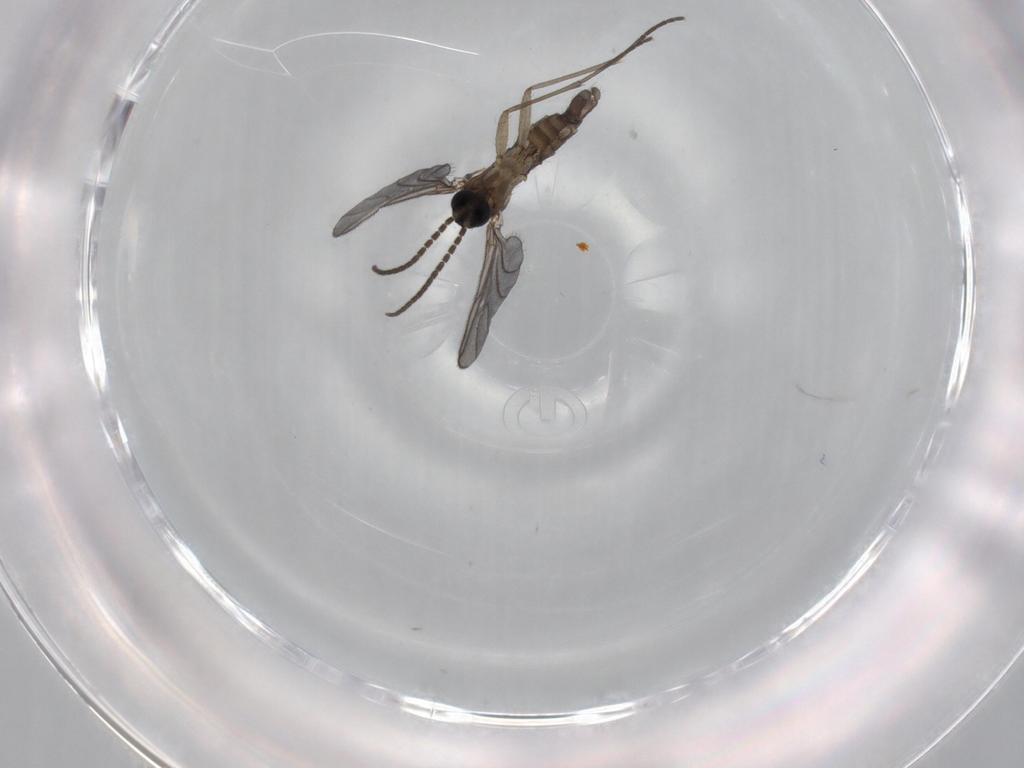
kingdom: Animalia
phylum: Arthropoda
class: Insecta
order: Diptera
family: Sciaridae
